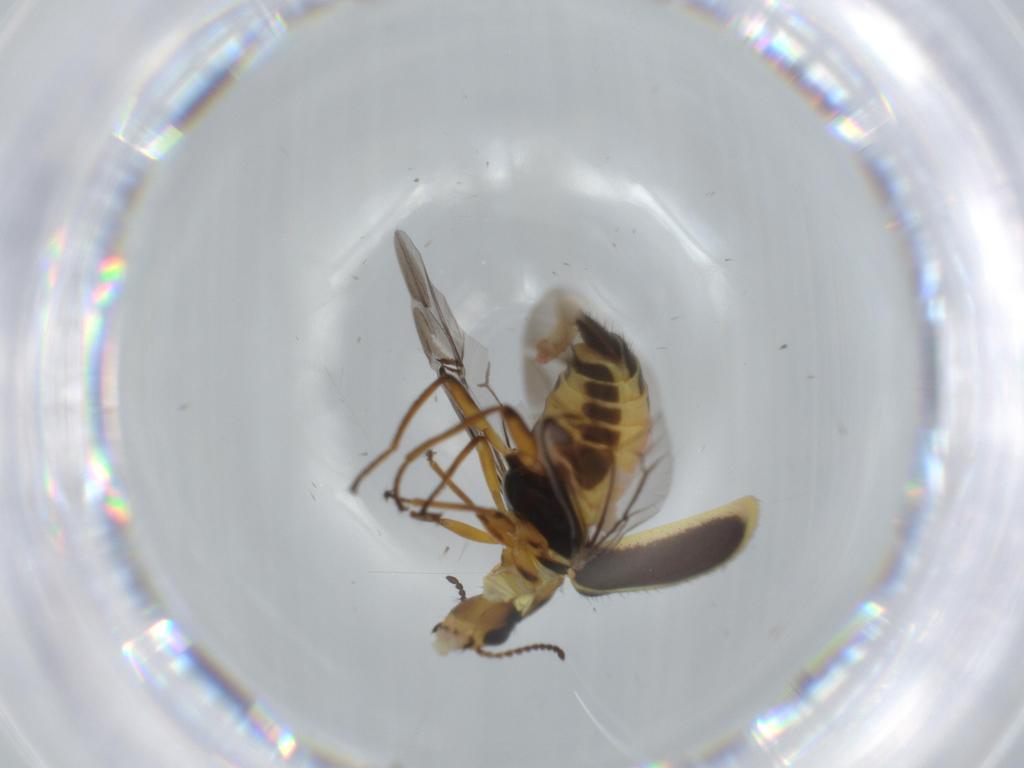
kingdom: Animalia
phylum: Arthropoda
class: Insecta
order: Coleoptera
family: Melyridae
